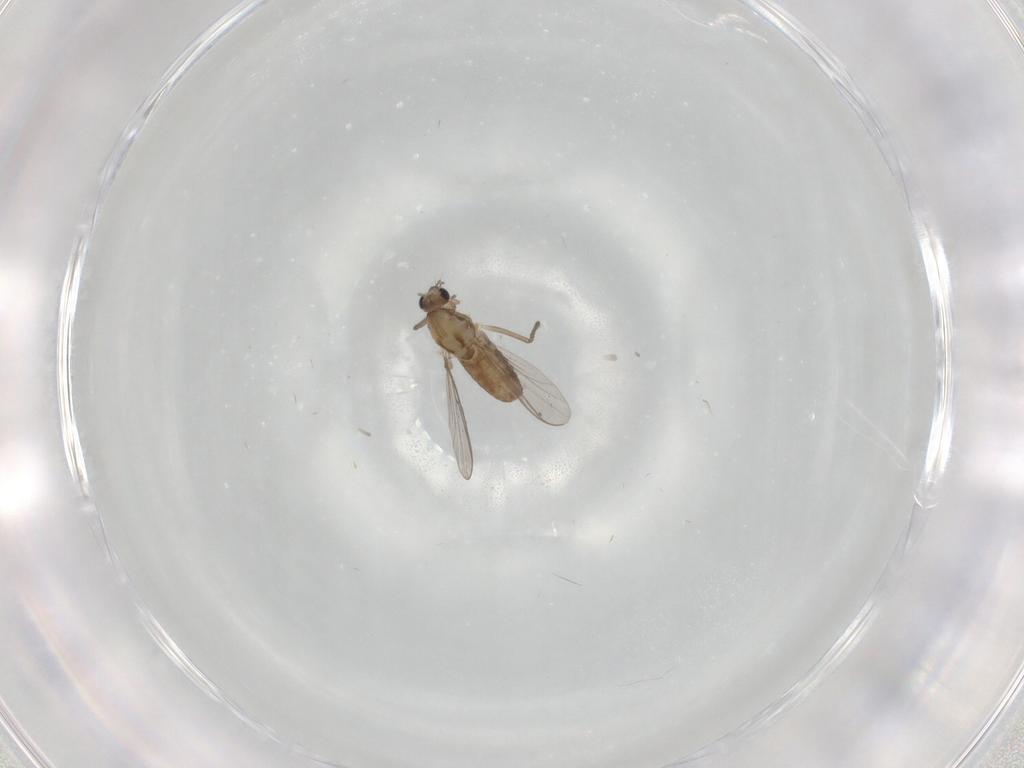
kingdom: Animalia
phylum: Arthropoda
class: Insecta
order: Diptera
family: Chironomidae
